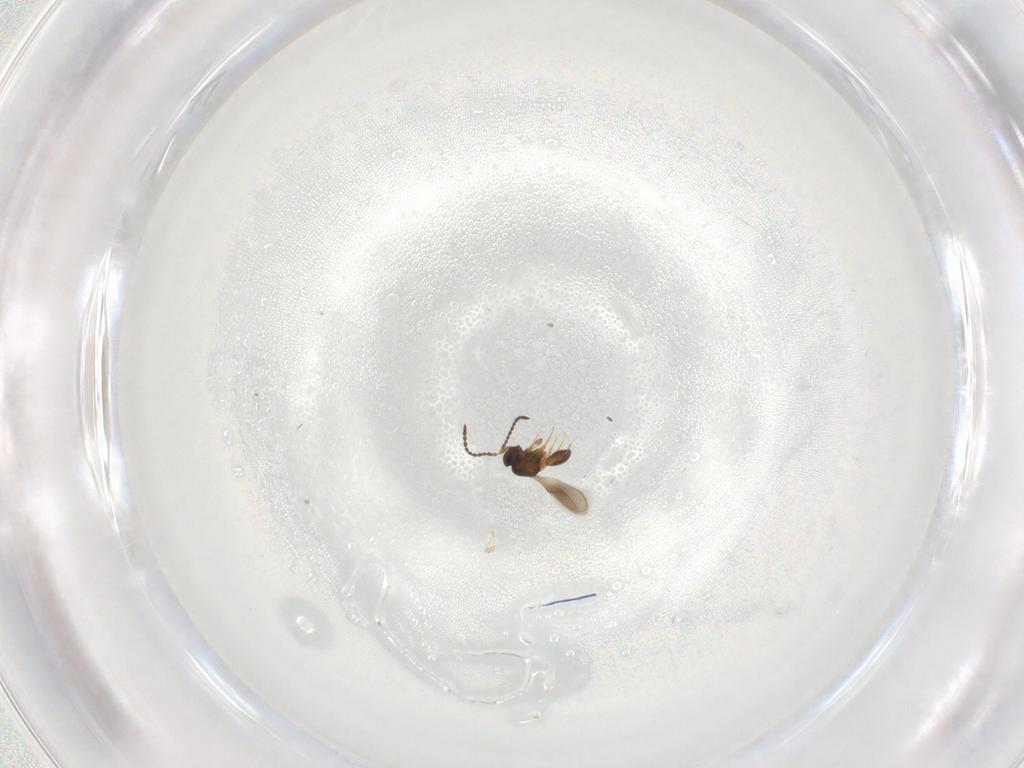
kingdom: Animalia
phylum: Arthropoda
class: Insecta
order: Hymenoptera
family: Scelionidae
